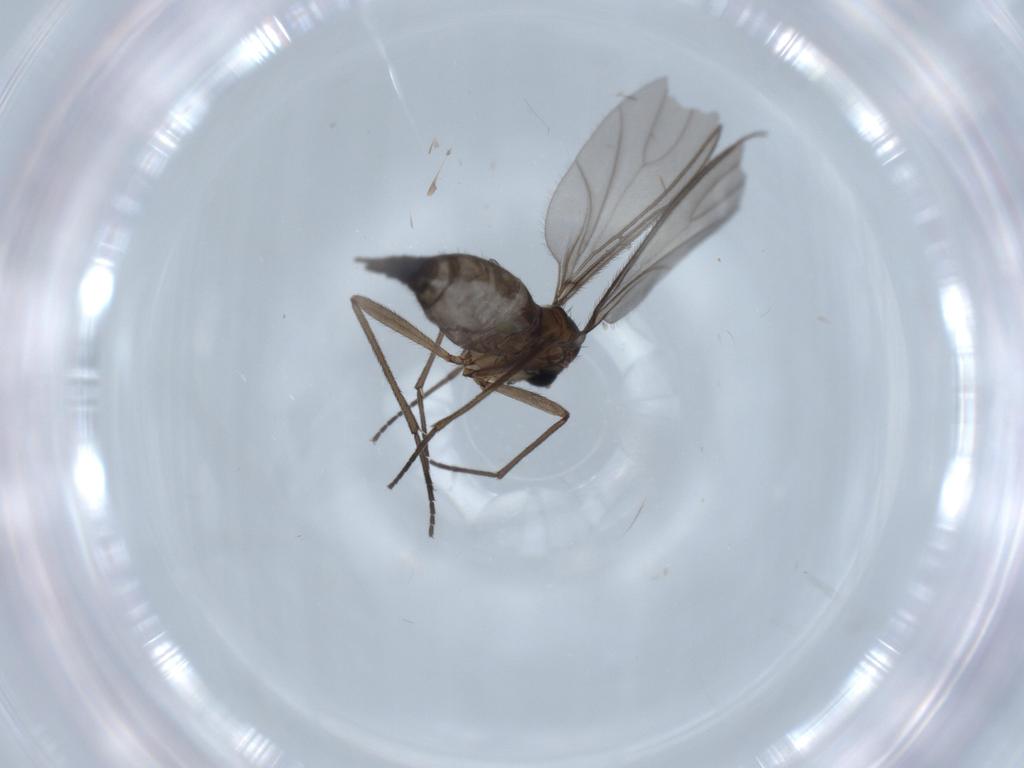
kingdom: Animalia
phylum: Arthropoda
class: Insecta
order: Diptera
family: Sciaridae
